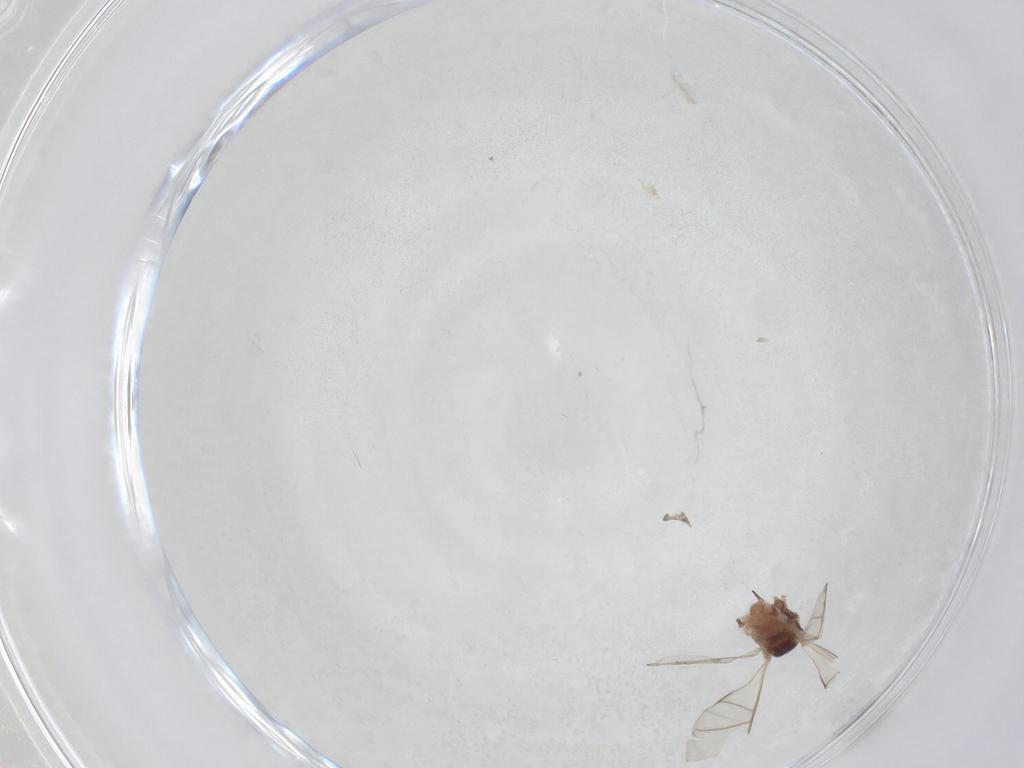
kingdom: Animalia
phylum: Arthropoda
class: Insecta
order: Hemiptera
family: Aphididae
